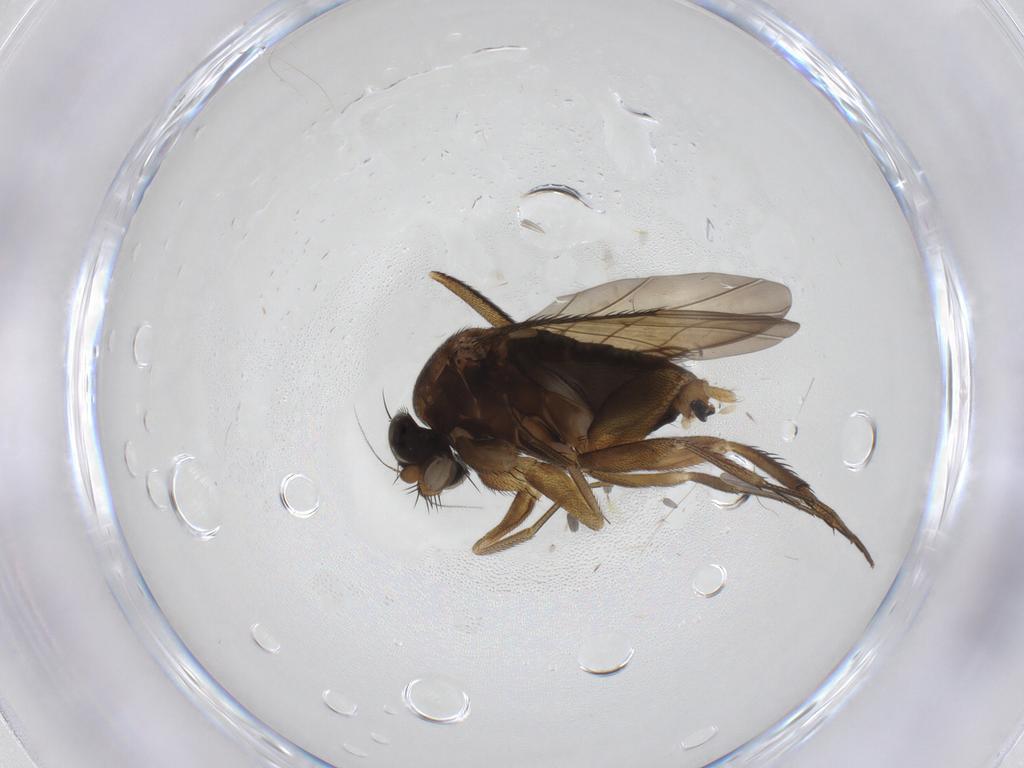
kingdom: Animalia
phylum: Arthropoda
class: Insecta
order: Diptera
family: Phoridae
